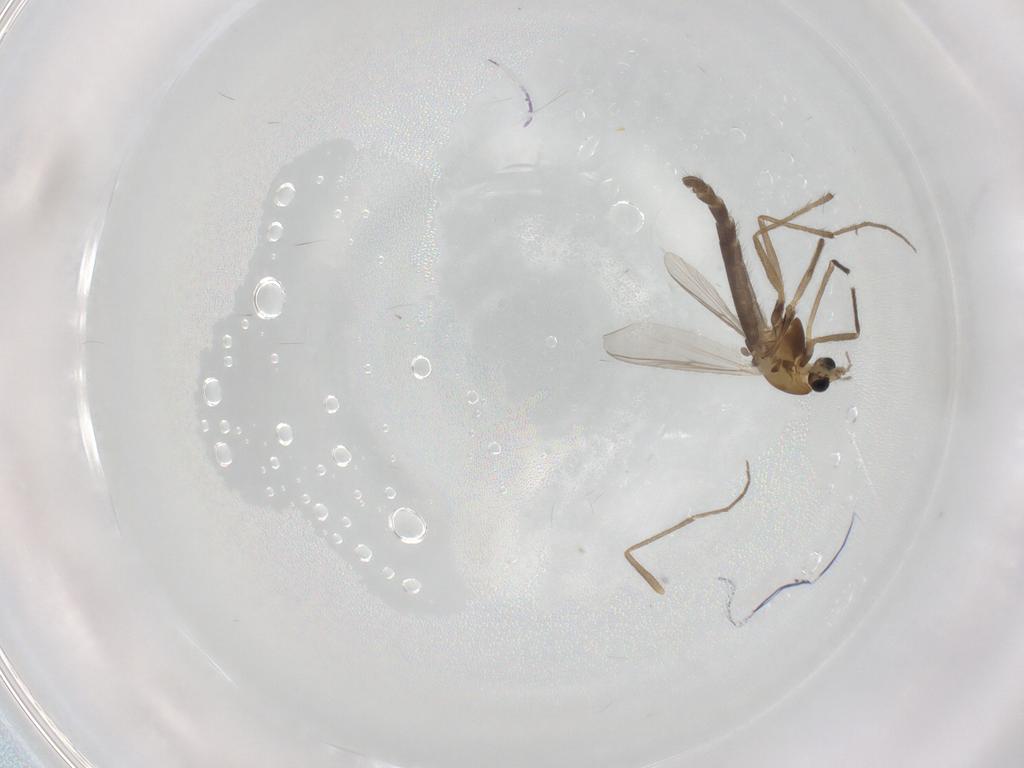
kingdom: Animalia
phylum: Arthropoda
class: Insecta
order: Diptera
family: Chironomidae
